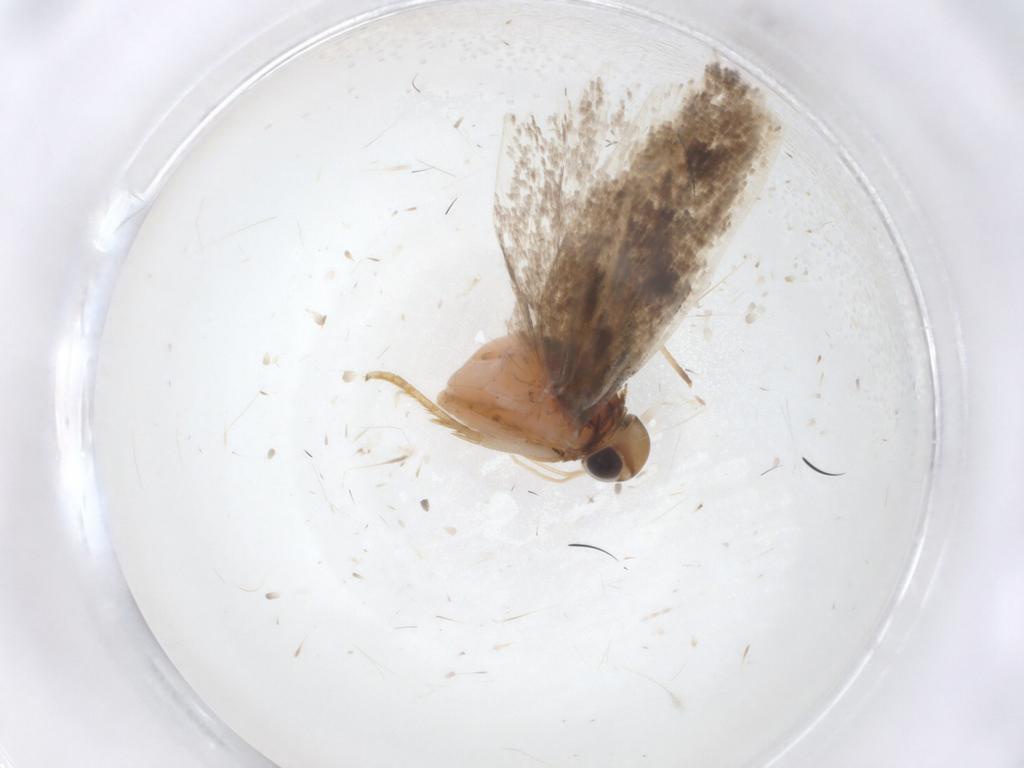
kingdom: Animalia
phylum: Arthropoda
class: Insecta
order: Lepidoptera
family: Gelechiidae
